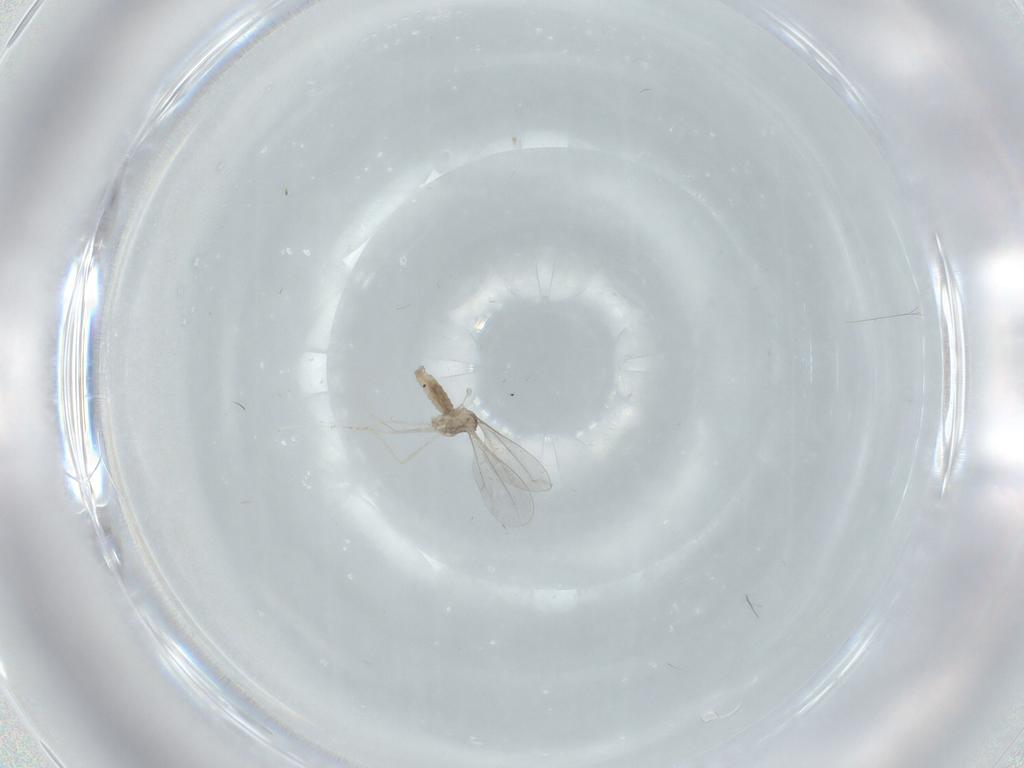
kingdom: Animalia
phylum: Arthropoda
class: Insecta
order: Diptera
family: Cecidomyiidae
